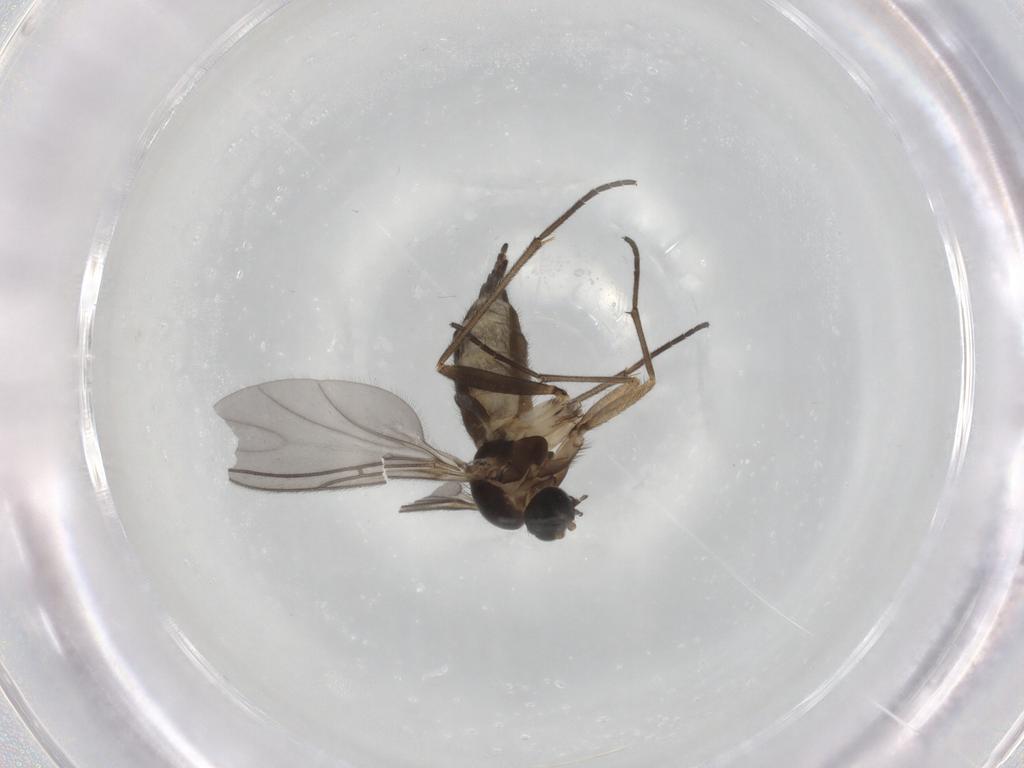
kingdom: Animalia
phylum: Arthropoda
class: Insecta
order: Diptera
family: Sciaridae
